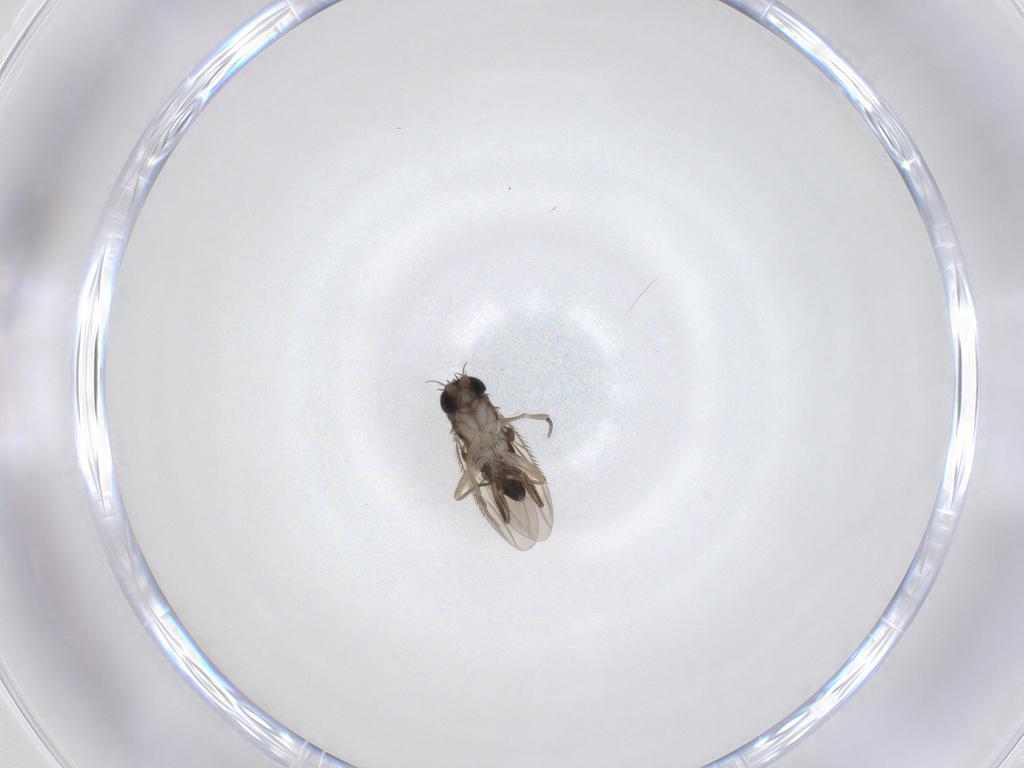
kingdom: Animalia
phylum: Arthropoda
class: Insecta
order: Diptera
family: Phoridae
